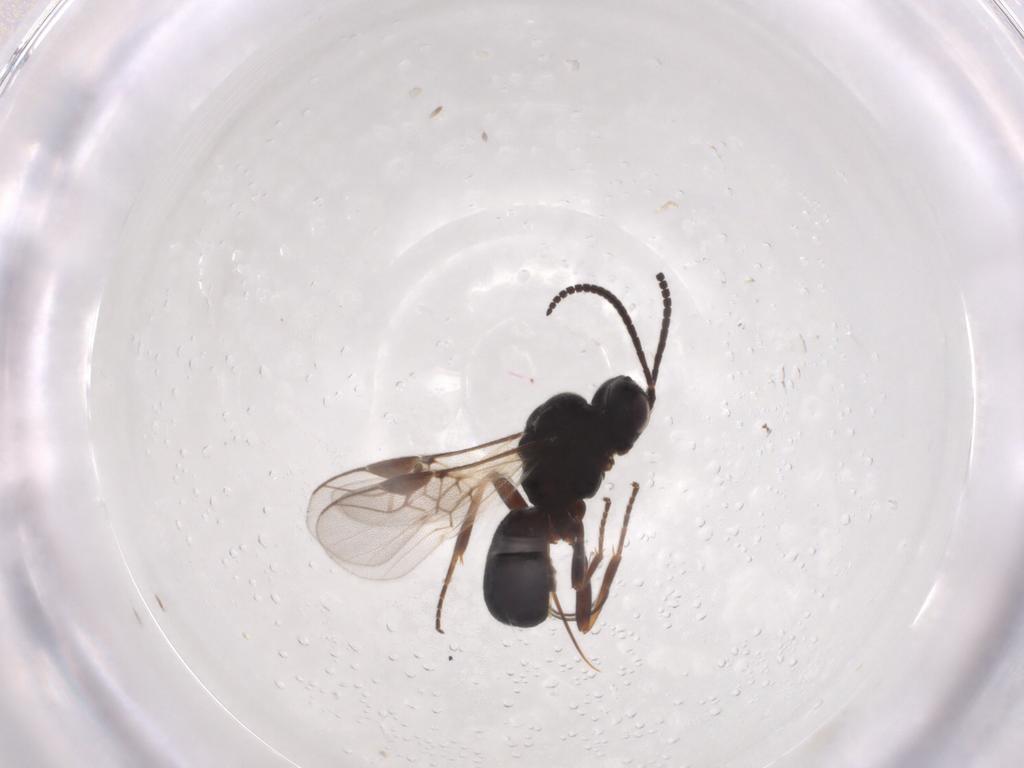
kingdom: Animalia
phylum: Arthropoda
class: Insecta
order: Hymenoptera
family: Braconidae
